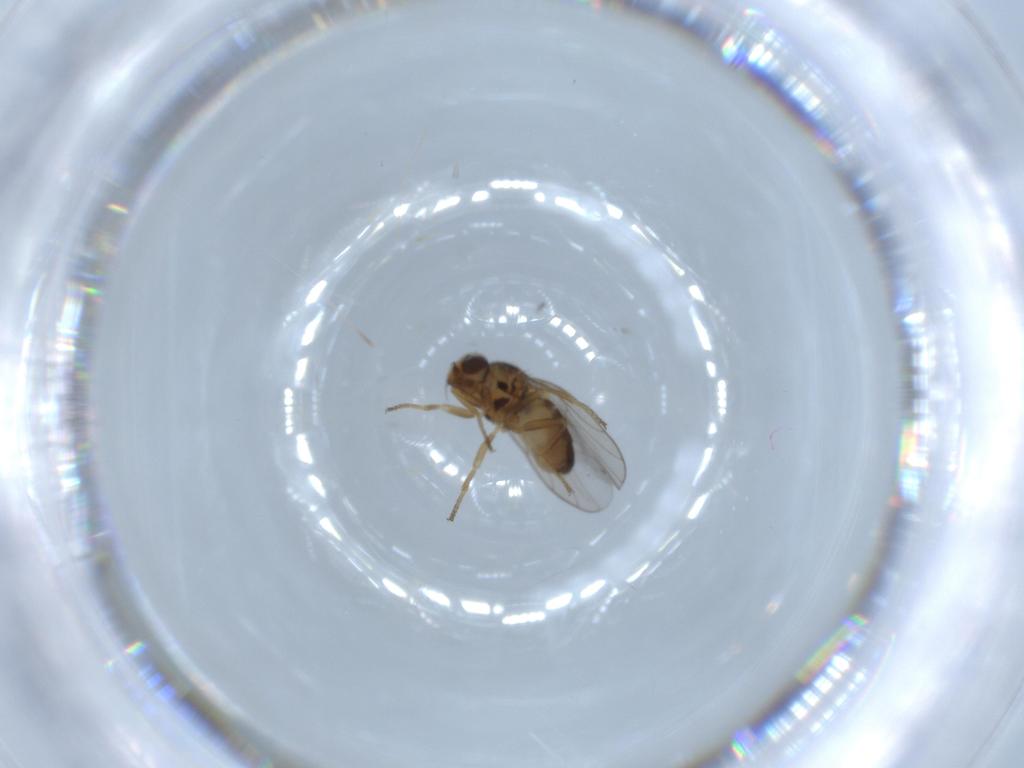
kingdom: Animalia
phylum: Arthropoda
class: Insecta
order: Diptera
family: Chloropidae
